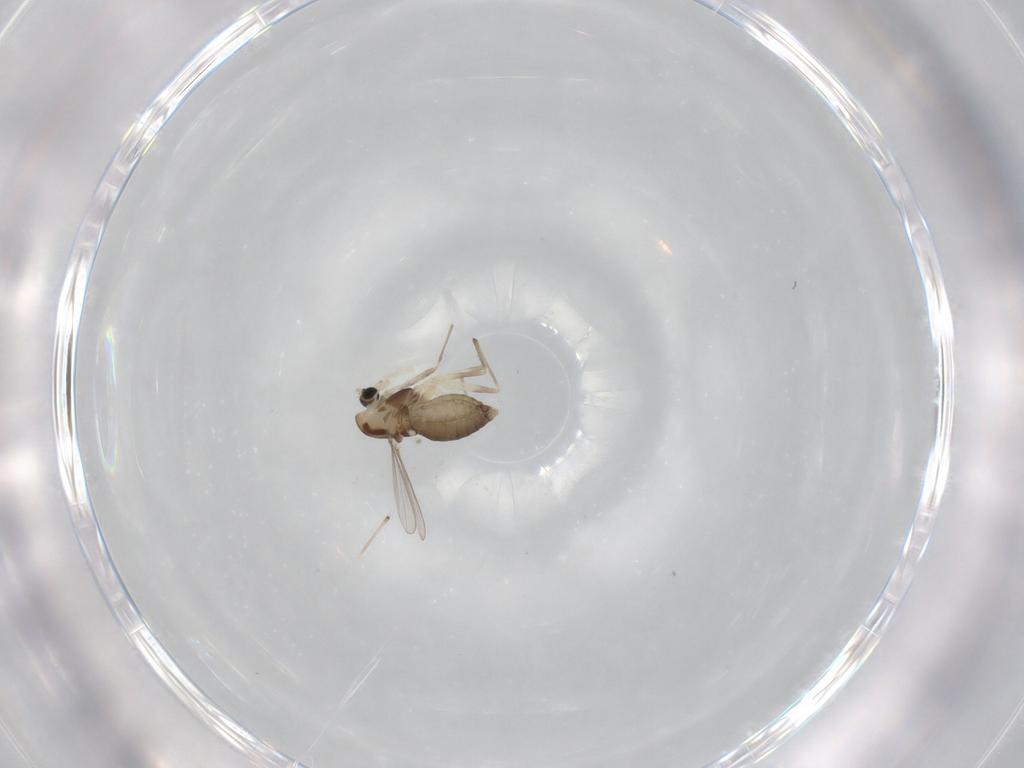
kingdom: Animalia
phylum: Arthropoda
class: Insecta
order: Diptera
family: Chironomidae
